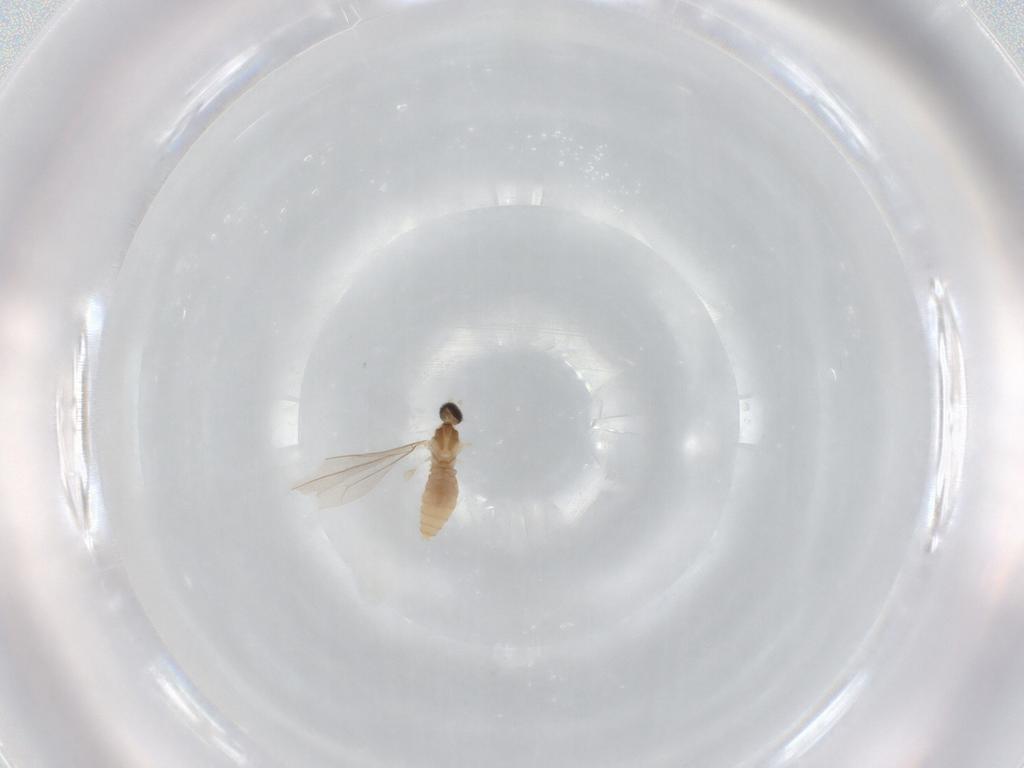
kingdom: Animalia
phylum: Arthropoda
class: Insecta
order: Diptera
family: Cecidomyiidae
